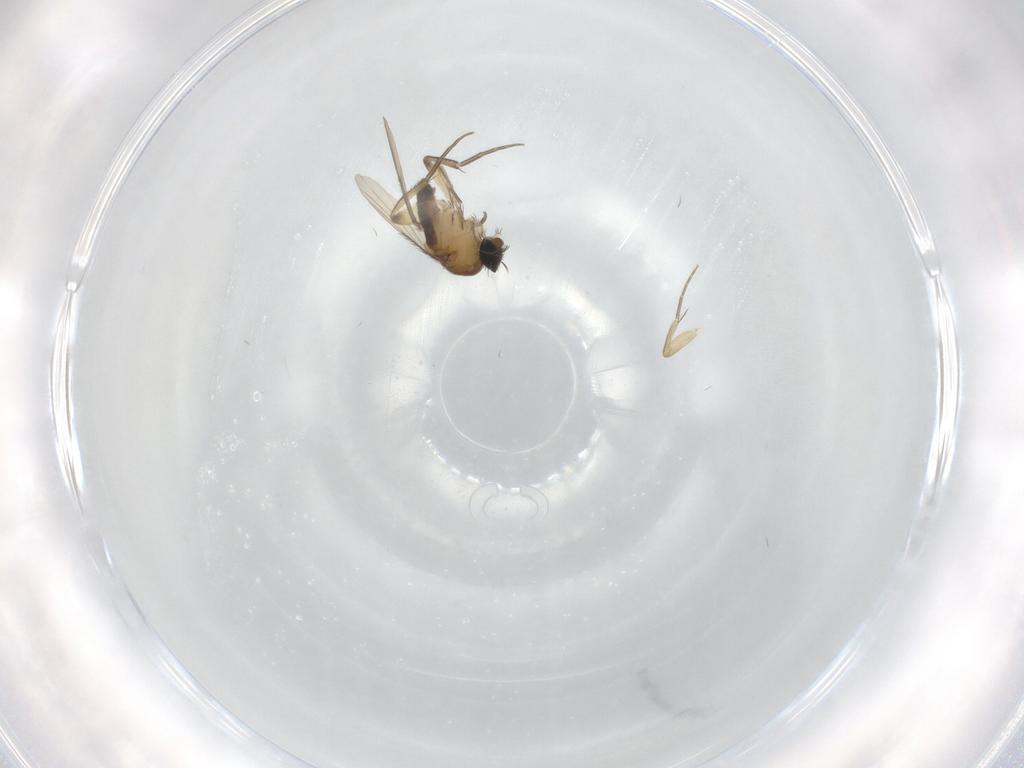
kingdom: Animalia
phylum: Arthropoda
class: Insecta
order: Diptera
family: Phoridae
